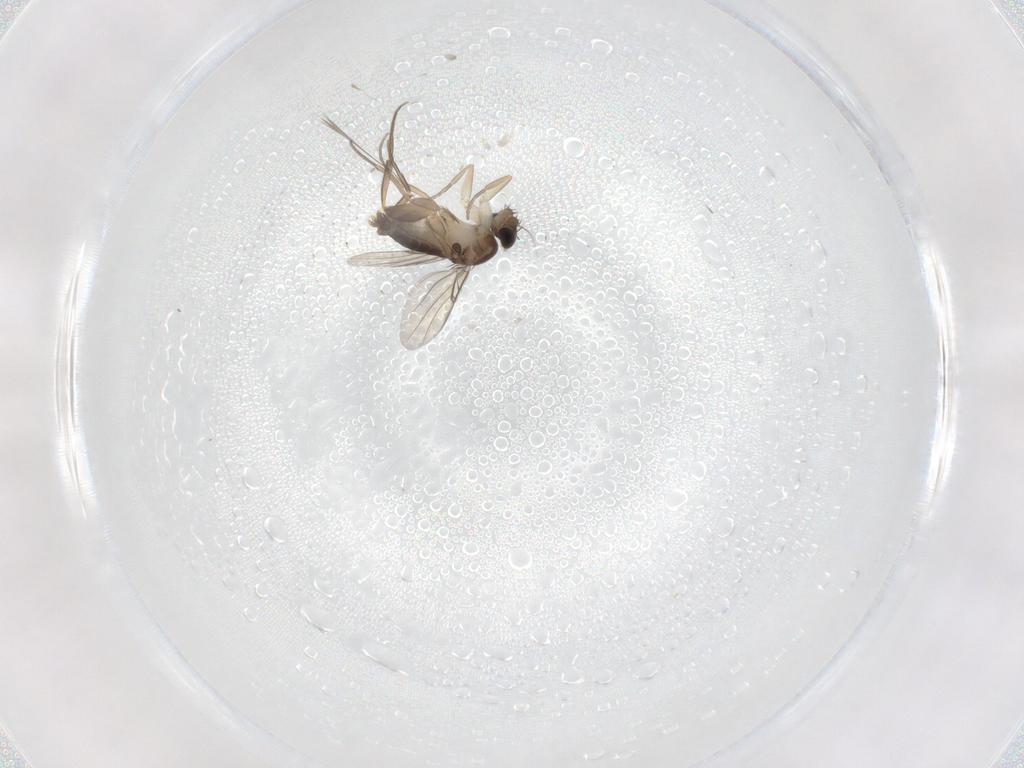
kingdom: Animalia
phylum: Arthropoda
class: Insecta
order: Diptera
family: Phoridae
